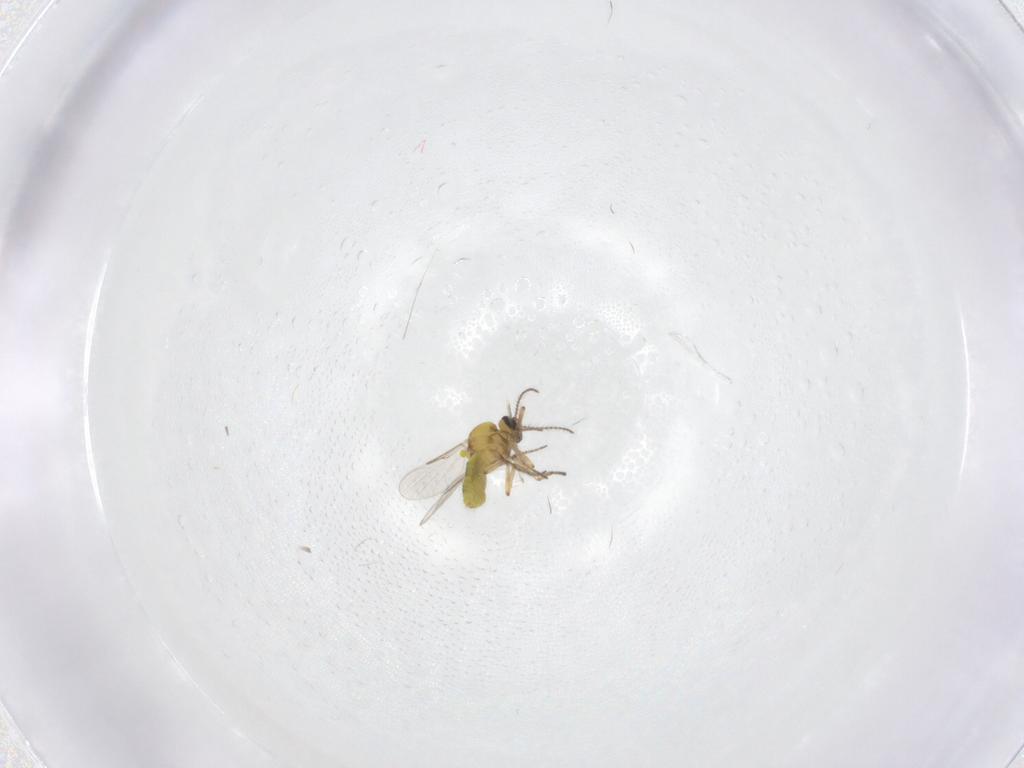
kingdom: Animalia
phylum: Arthropoda
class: Insecta
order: Diptera
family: Cecidomyiidae
